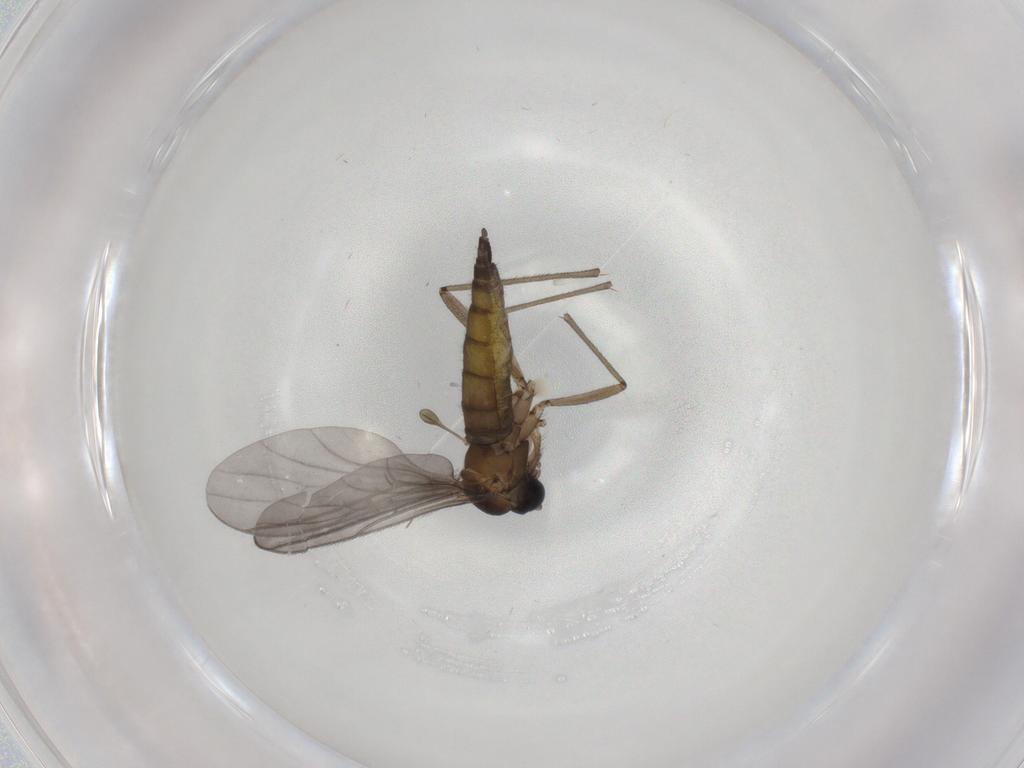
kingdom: Animalia
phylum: Arthropoda
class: Insecta
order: Diptera
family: Sciaridae
